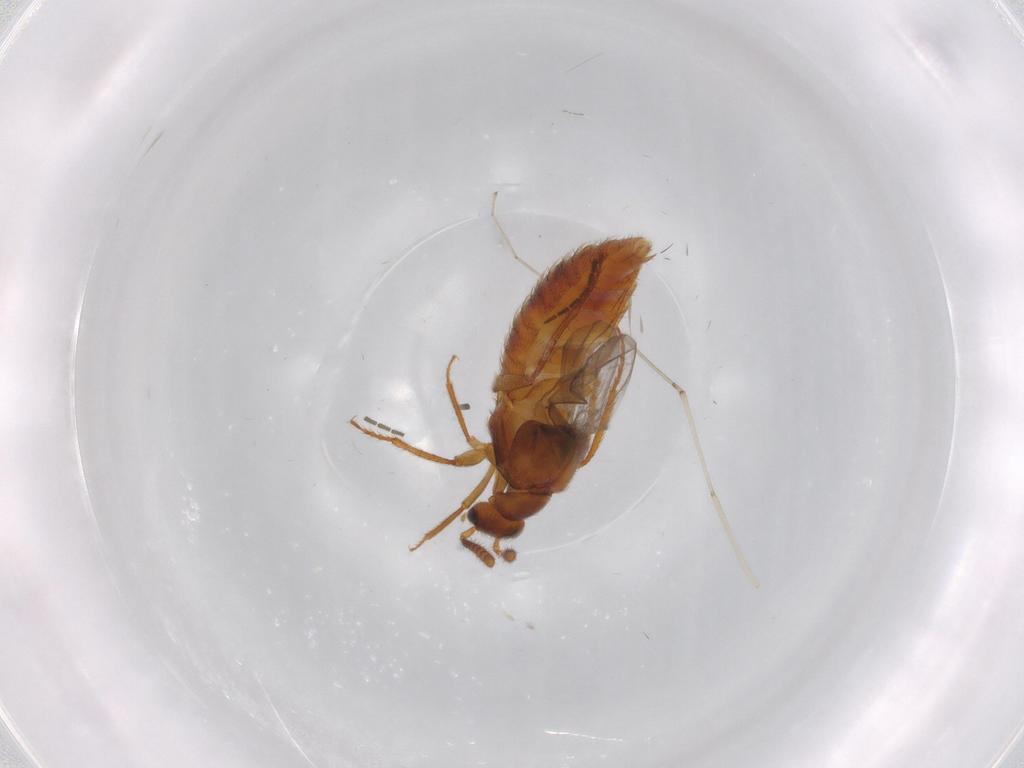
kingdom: Animalia
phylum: Arthropoda
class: Insecta
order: Coleoptera
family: Staphylinidae
